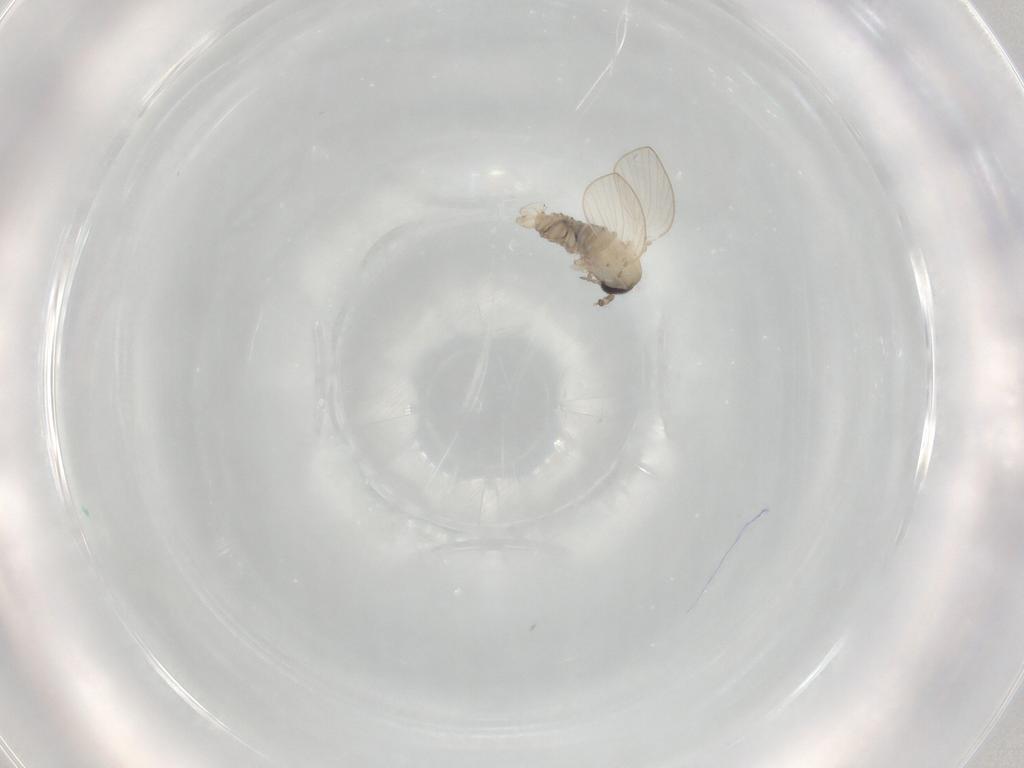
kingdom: Animalia
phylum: Arthropoda
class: Insecta
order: Diptera
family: Psychodidae
